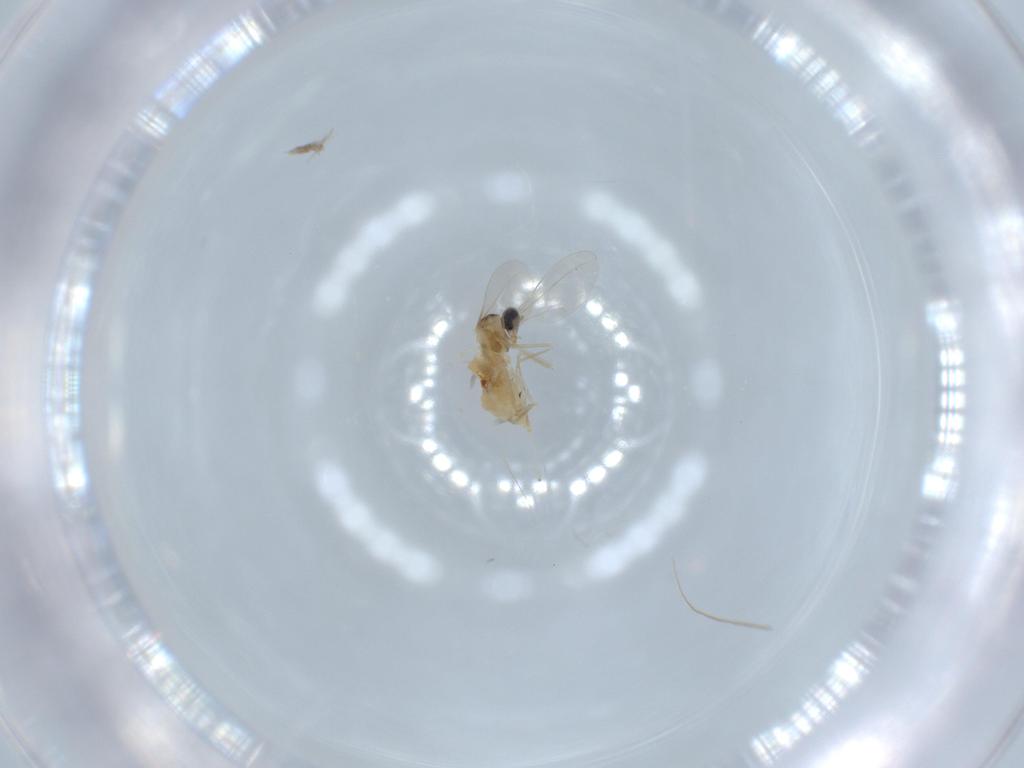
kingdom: Animalia
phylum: Arthropoda
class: Insecta
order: Diptera
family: Cecidomyiidae
